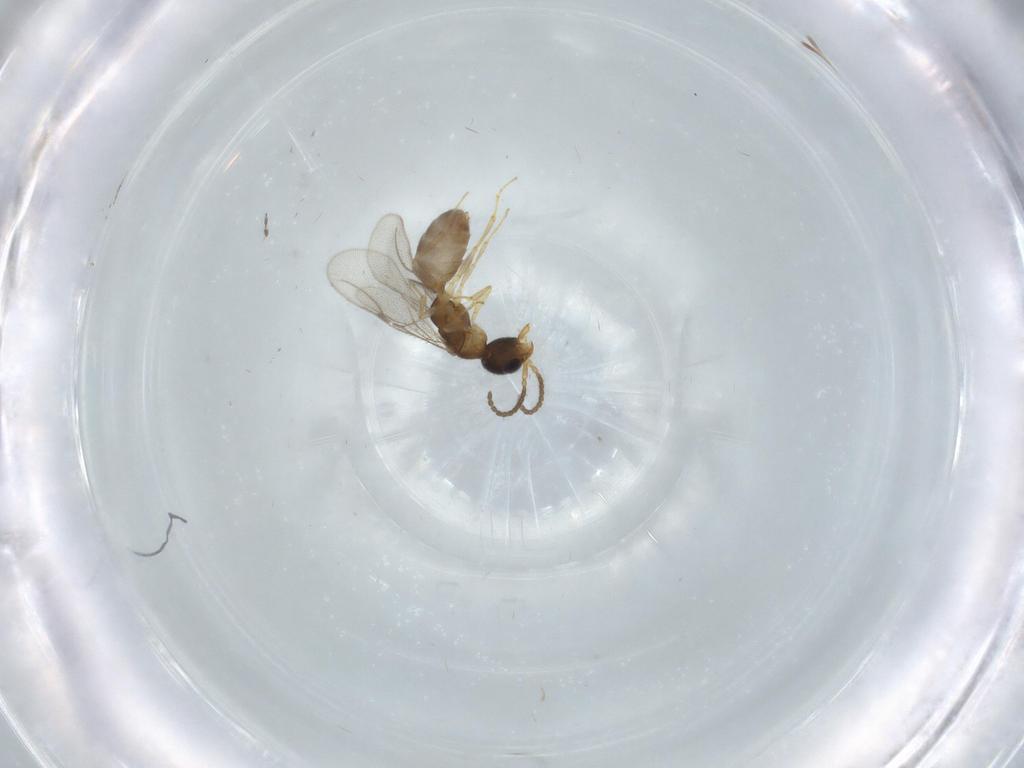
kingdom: Animalia
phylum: Arthropoda
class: Insecta
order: Hymenoptera
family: Bethylidae
